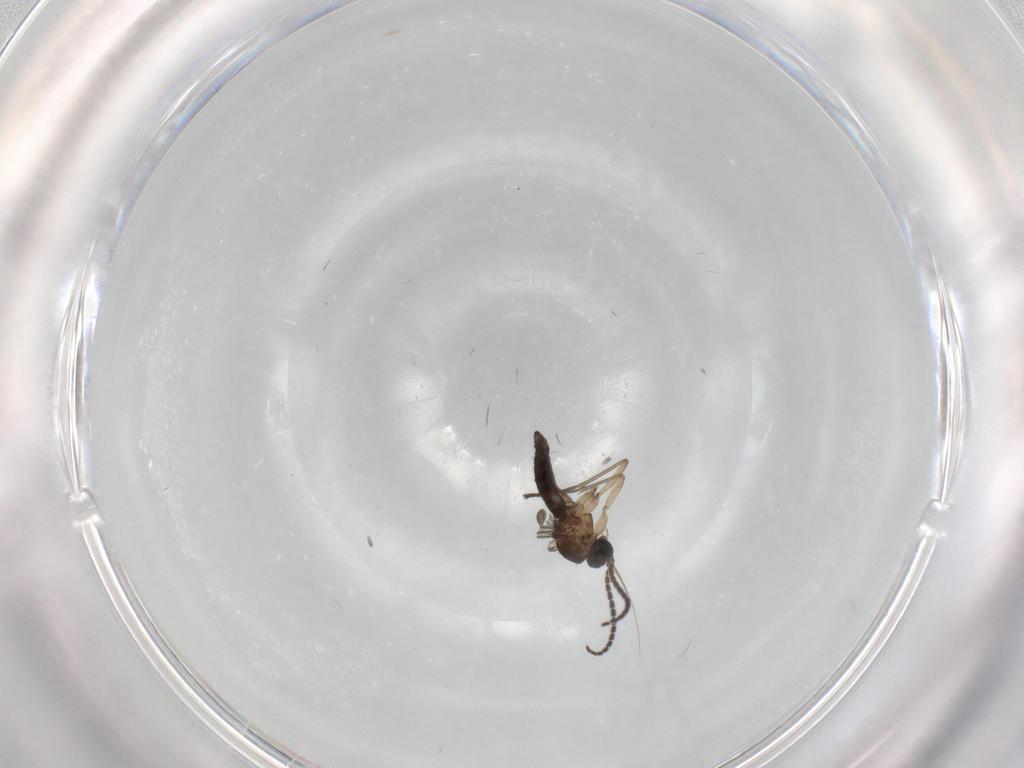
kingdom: Animalia
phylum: Arthropoda
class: Insecta
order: Diptera
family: Sciaridae
